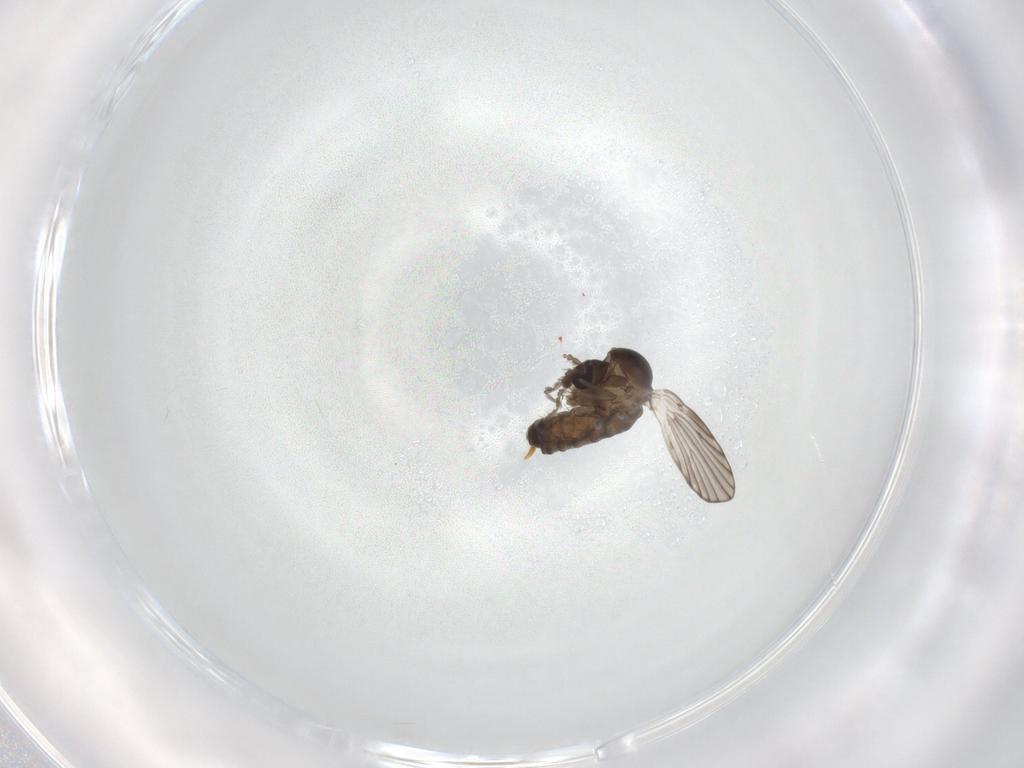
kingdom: Animalia
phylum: Arthropoda
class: Insecta
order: Diptera
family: Psychodidae
